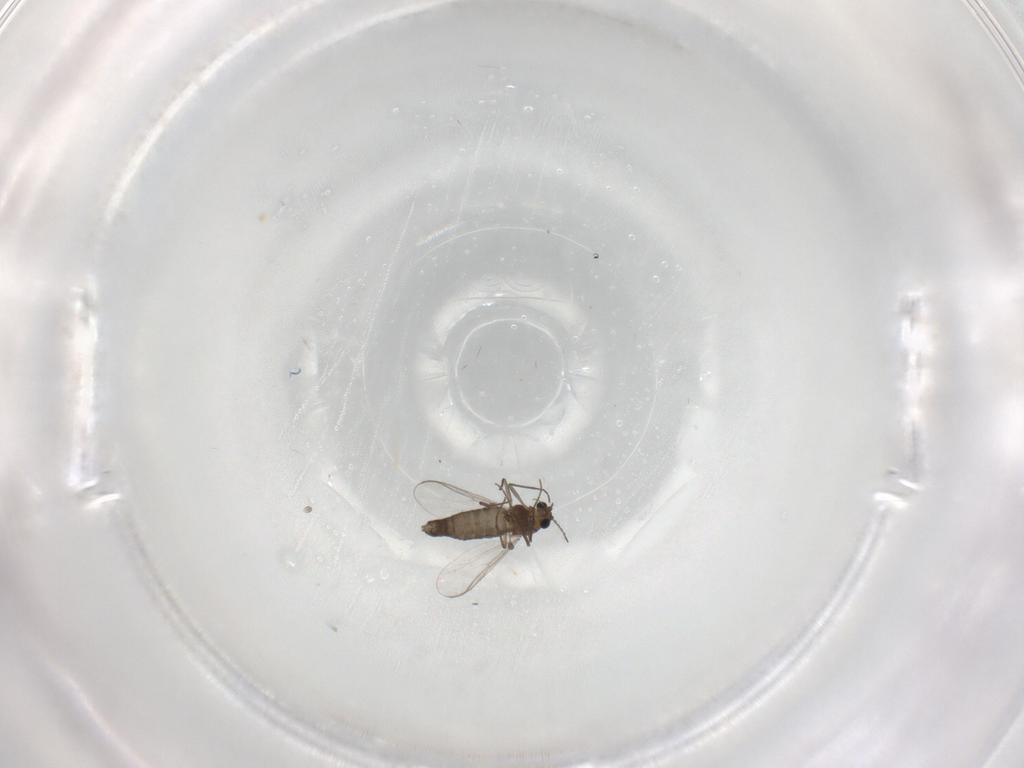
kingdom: Animalia
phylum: Arthropoda
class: Insecta
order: Diptera
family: Chironomidae
